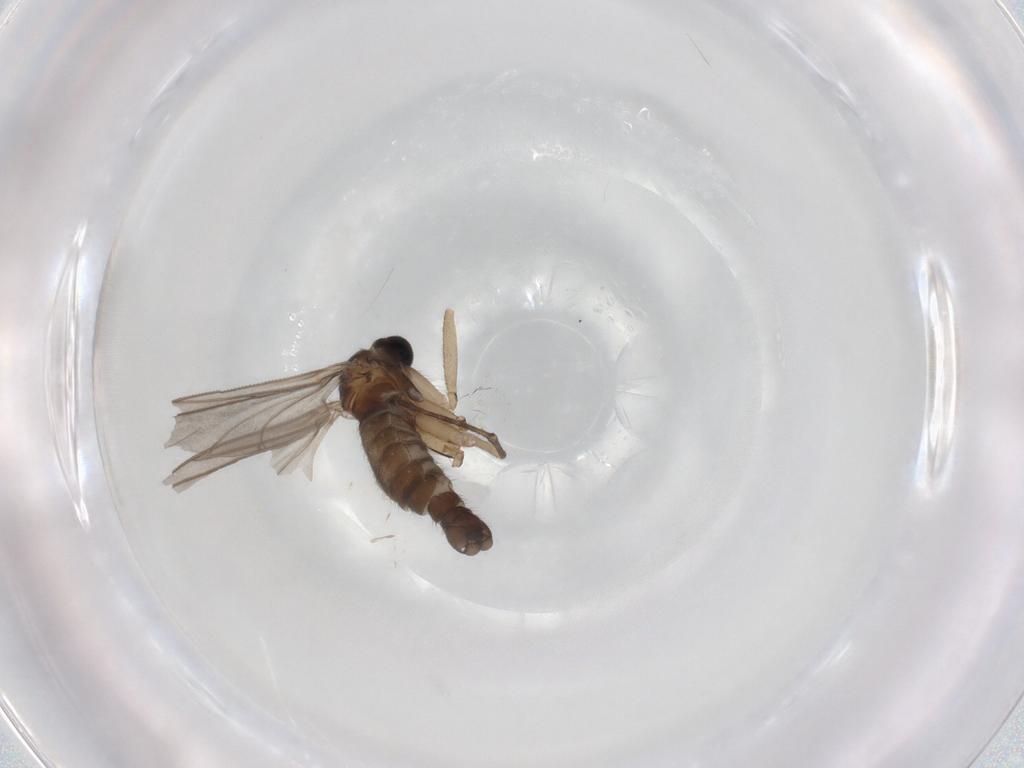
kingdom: Animalia
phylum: Arthropoda
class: Insecta
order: Diptera
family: Sciaridae
